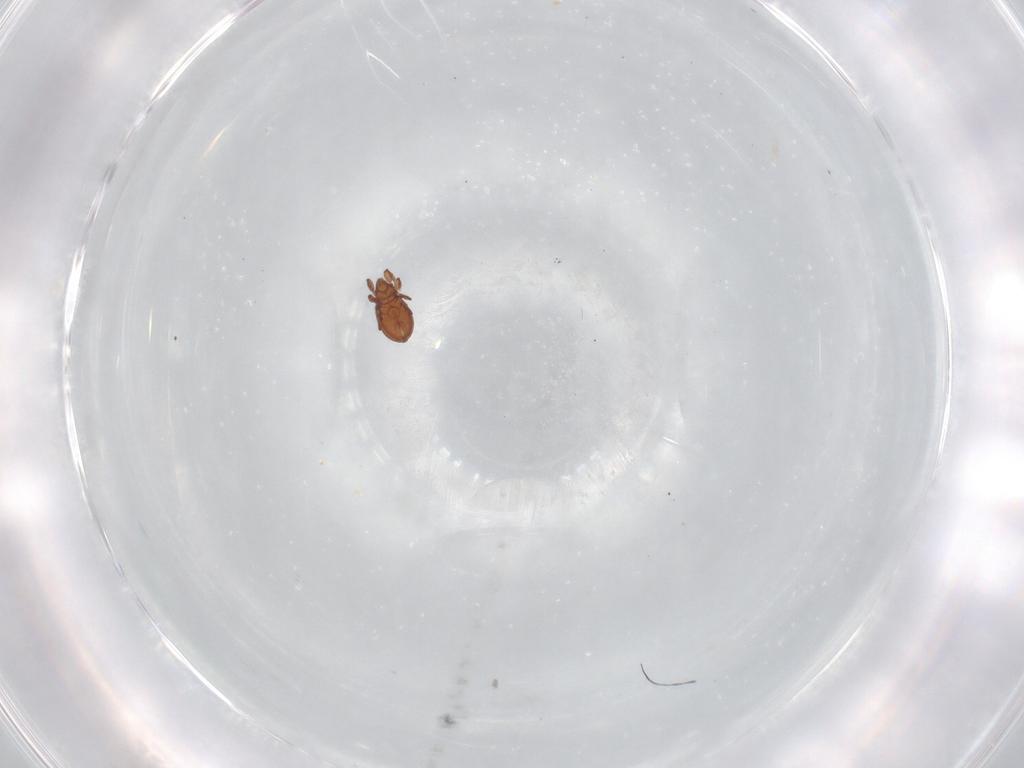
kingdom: Animalia
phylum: Arthropoda
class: Arachnida
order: Sarcoptiformes
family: Eremaeidae
